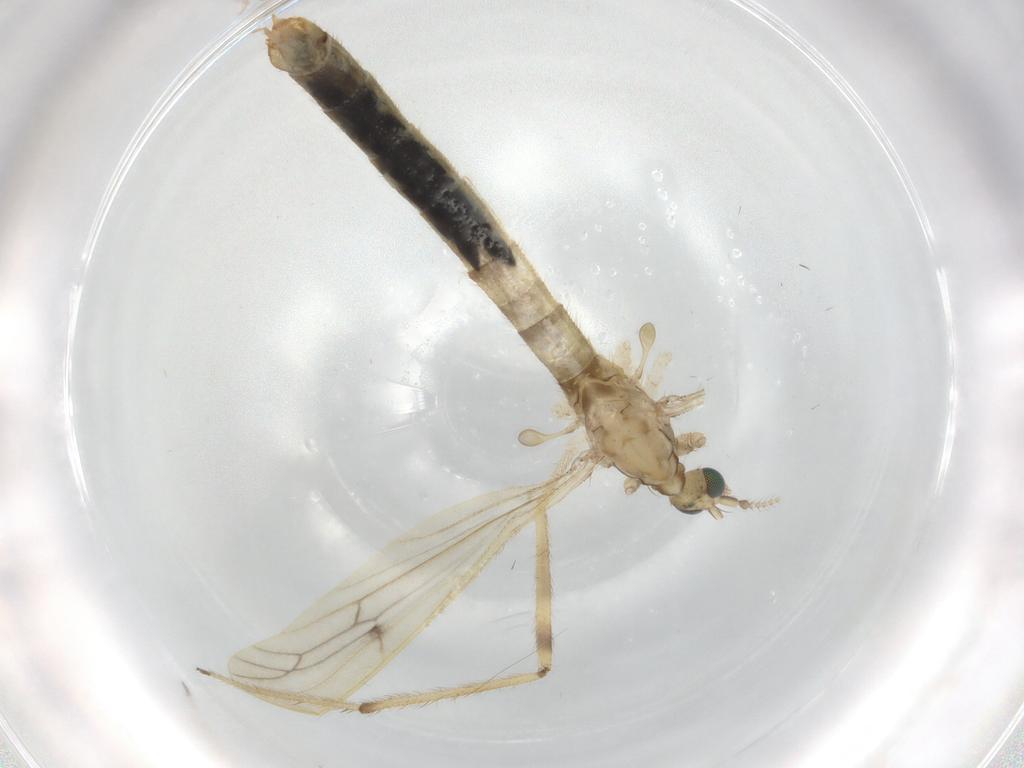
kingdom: Animalia
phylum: Arthropoda
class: Insecta
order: Diptera
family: Limoniidae
